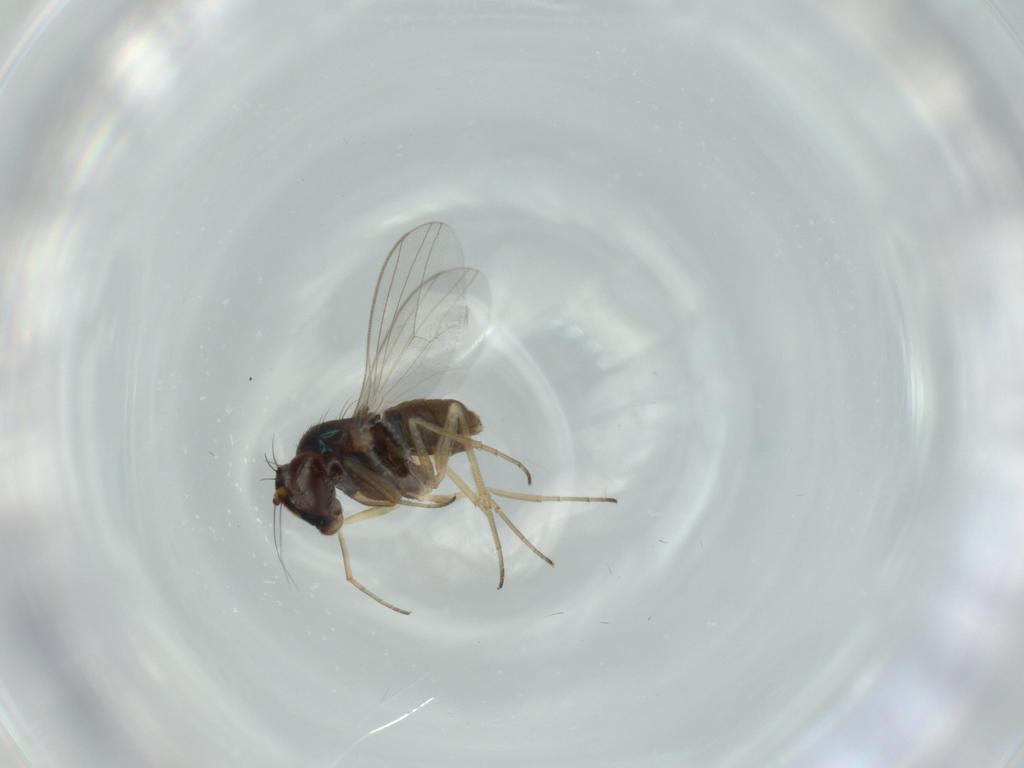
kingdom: Animalia
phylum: Arthropoda
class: Insecta
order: Diptera
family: Dolichopodidae
